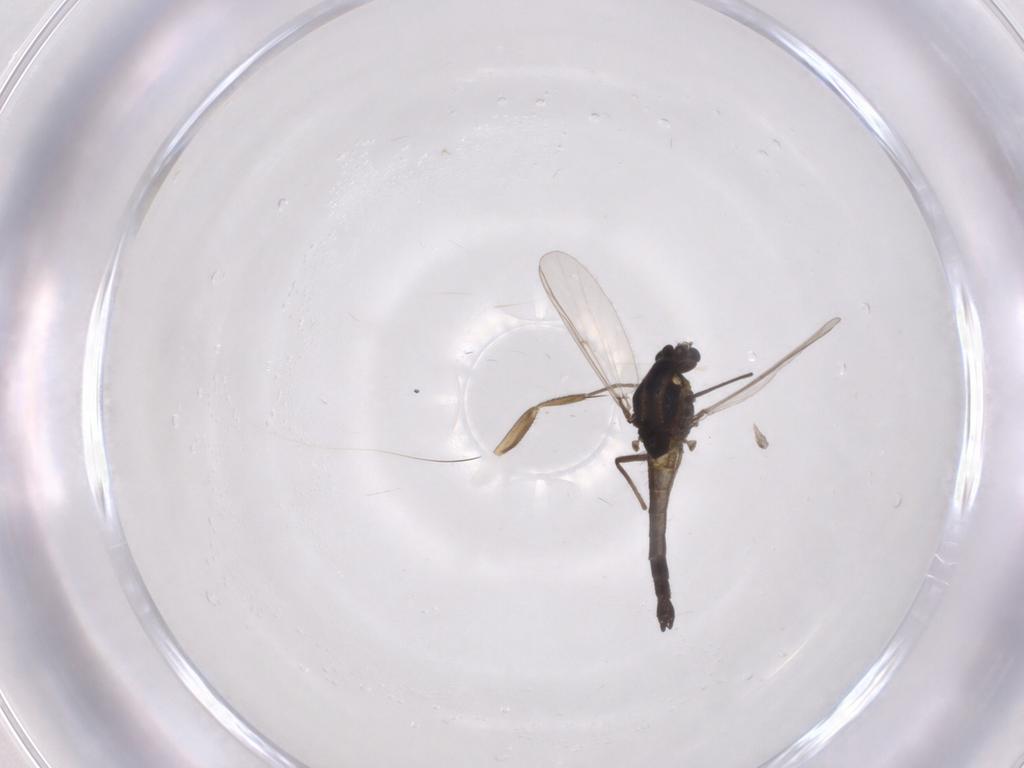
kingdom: Animalia
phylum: Arthropoda
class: Insecta
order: Diptera
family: Chironomidae
